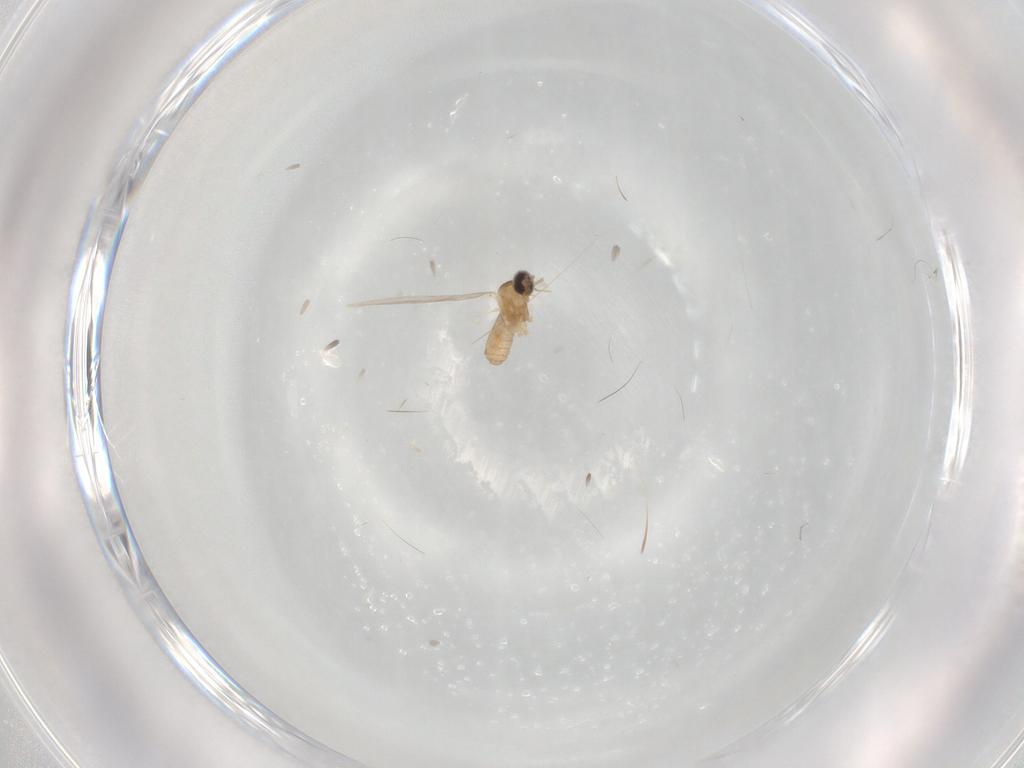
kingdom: Animalia
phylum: Arthropoda
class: Insecta
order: Diptera
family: Cecidomyiidae
